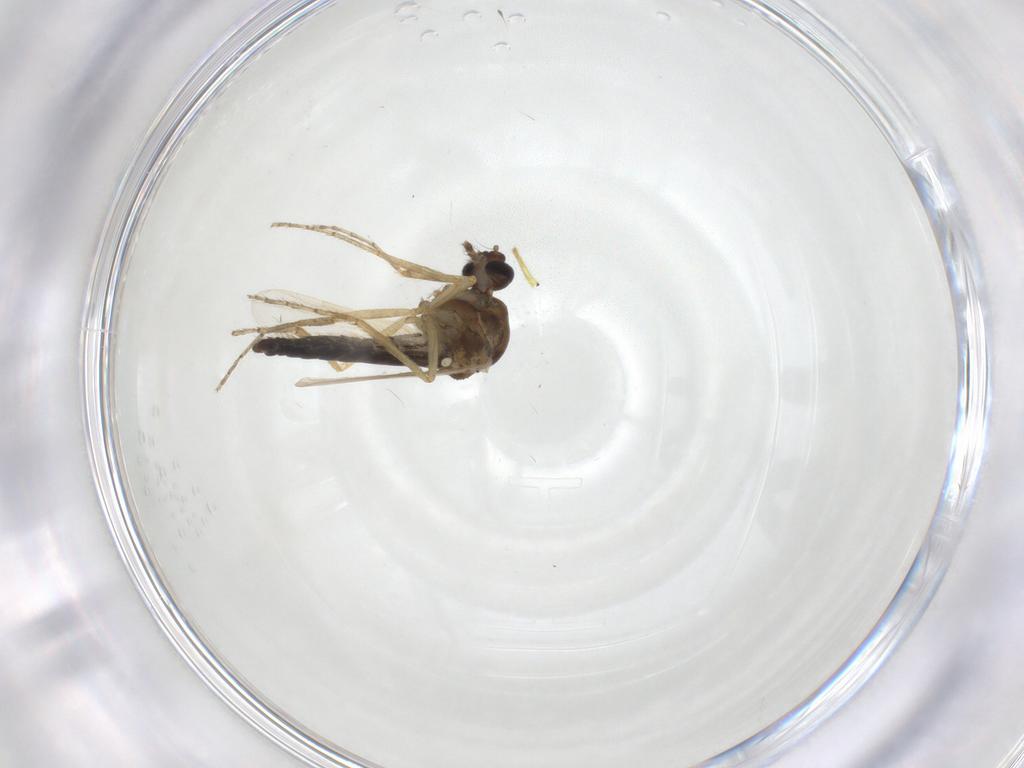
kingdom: Animalia
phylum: Arthropoda
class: Insecta
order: Diptera
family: Ceratopogonidae
